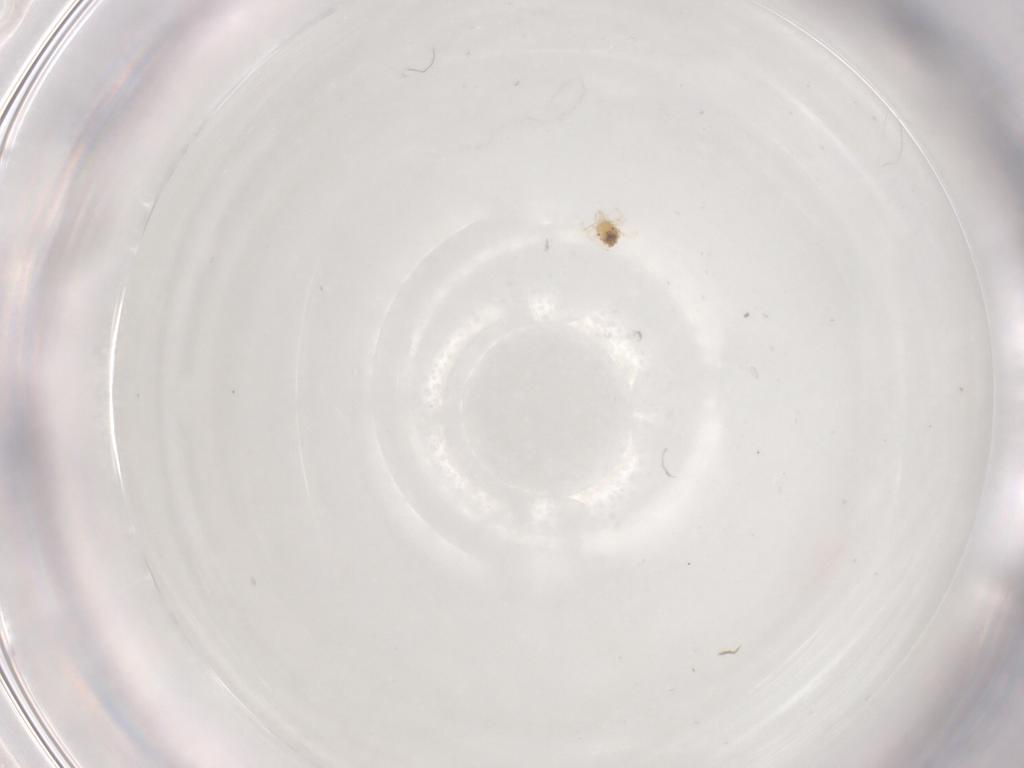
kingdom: Animalia
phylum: Arthropoda
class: Arachnida
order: Trombidiformes
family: Anystidae
